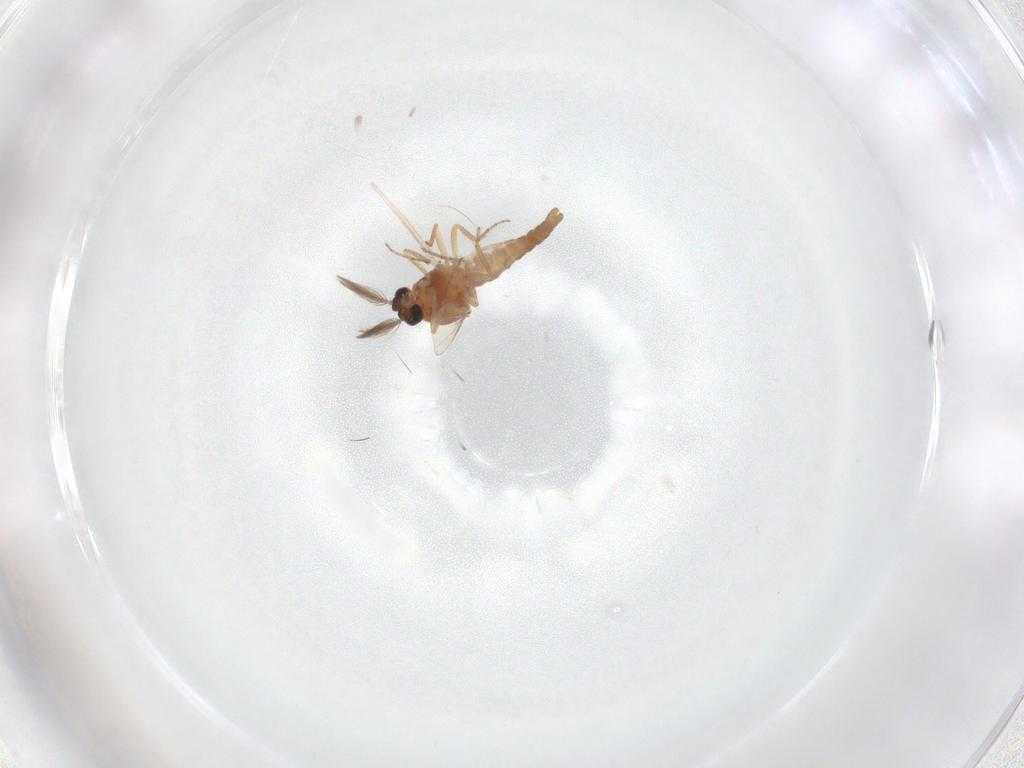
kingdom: Animalia
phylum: Arthropoda
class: Insecta
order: Diptera
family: Ceratopogonidae
